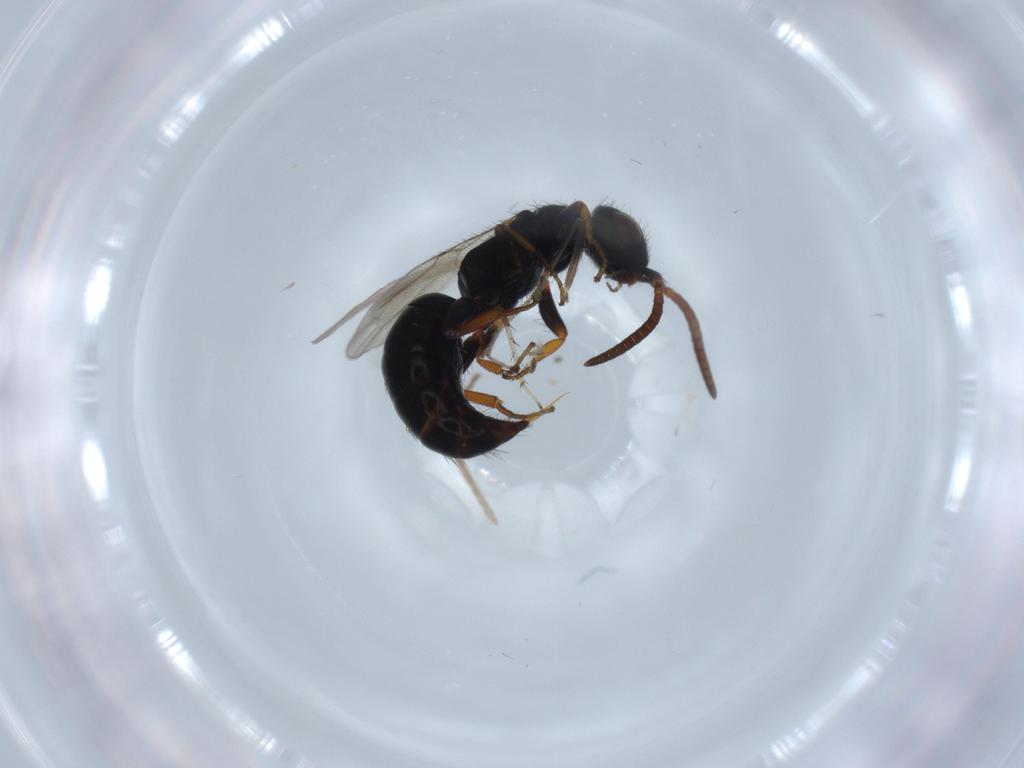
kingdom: Animalia
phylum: Arthropoda
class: Insecta
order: Hymenoptera
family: Bethylidae
